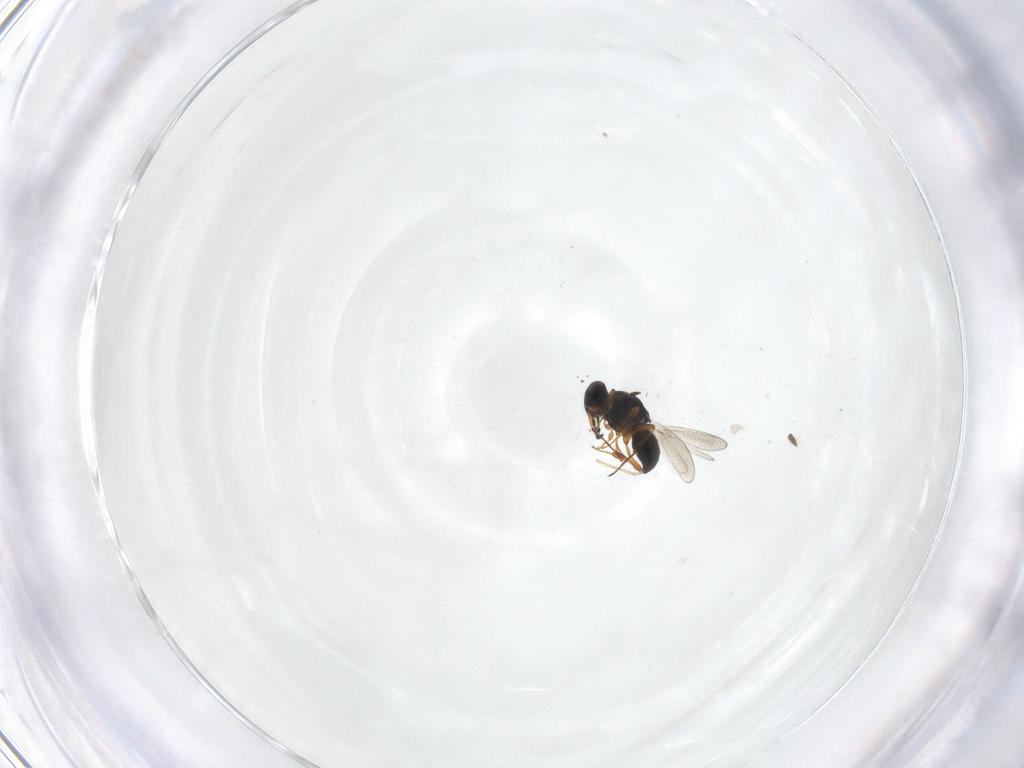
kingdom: Animalia
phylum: Arthropoda
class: Insecta
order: Hymenoptera
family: Platygastridae
